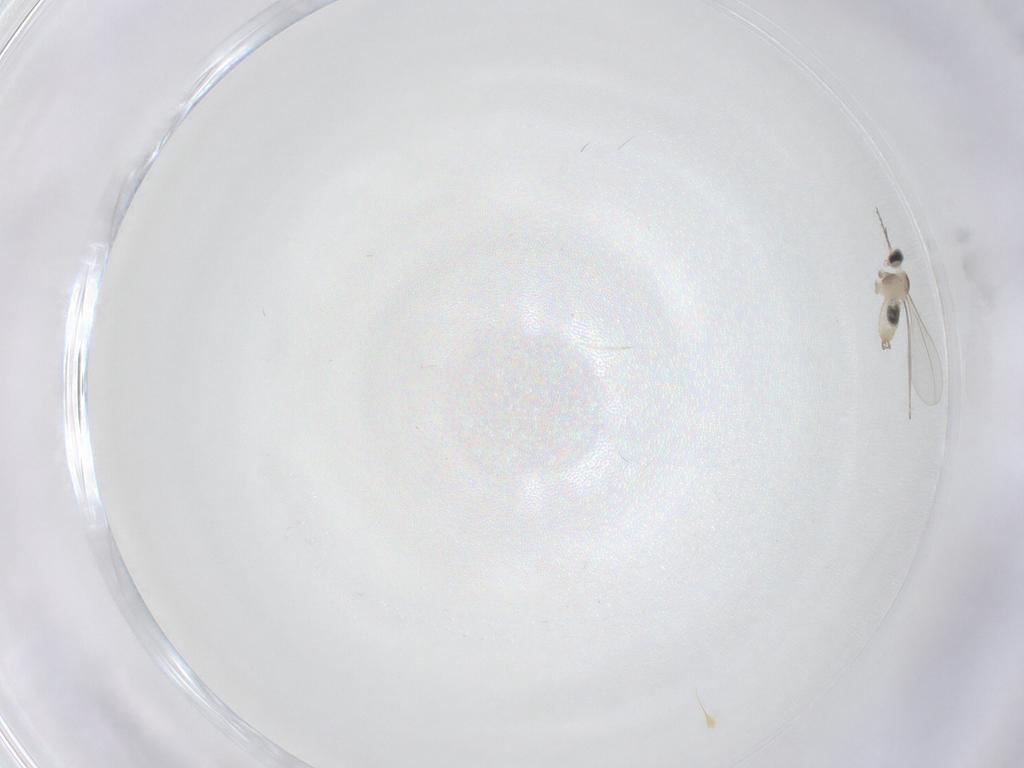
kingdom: Animalia
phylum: Arthropoda
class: Insecta
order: Diptera
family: Cecidomyiidae
